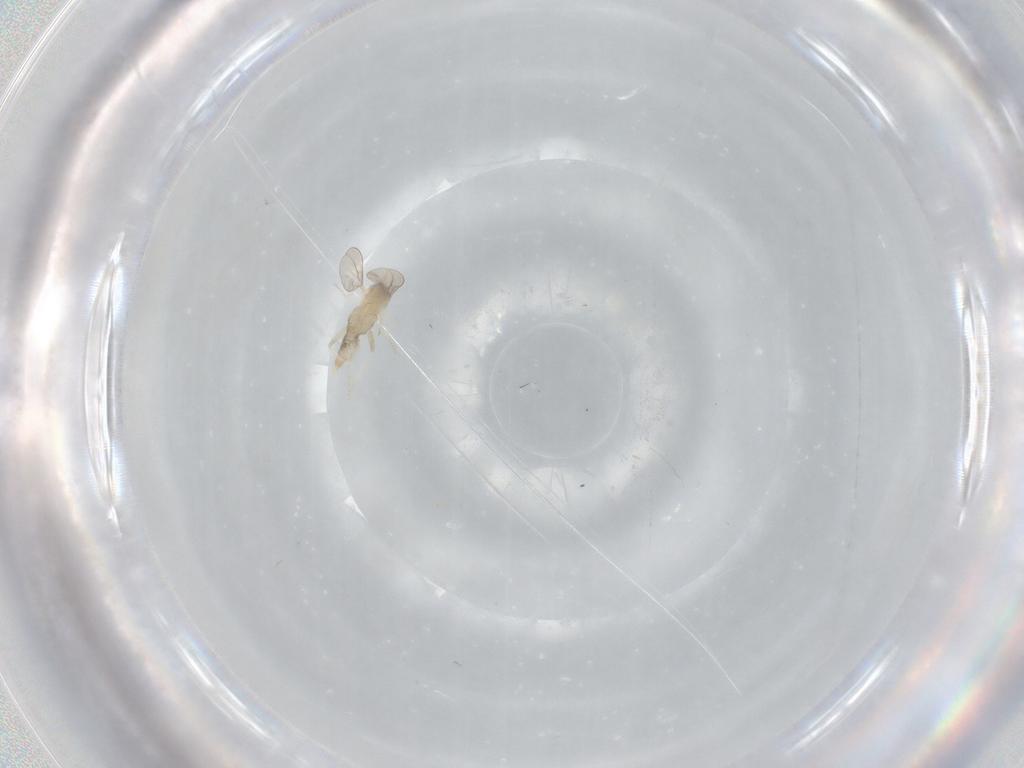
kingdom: Animalia
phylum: Arthropoda
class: Insecta
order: Diptera
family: Cecidomyiidae
